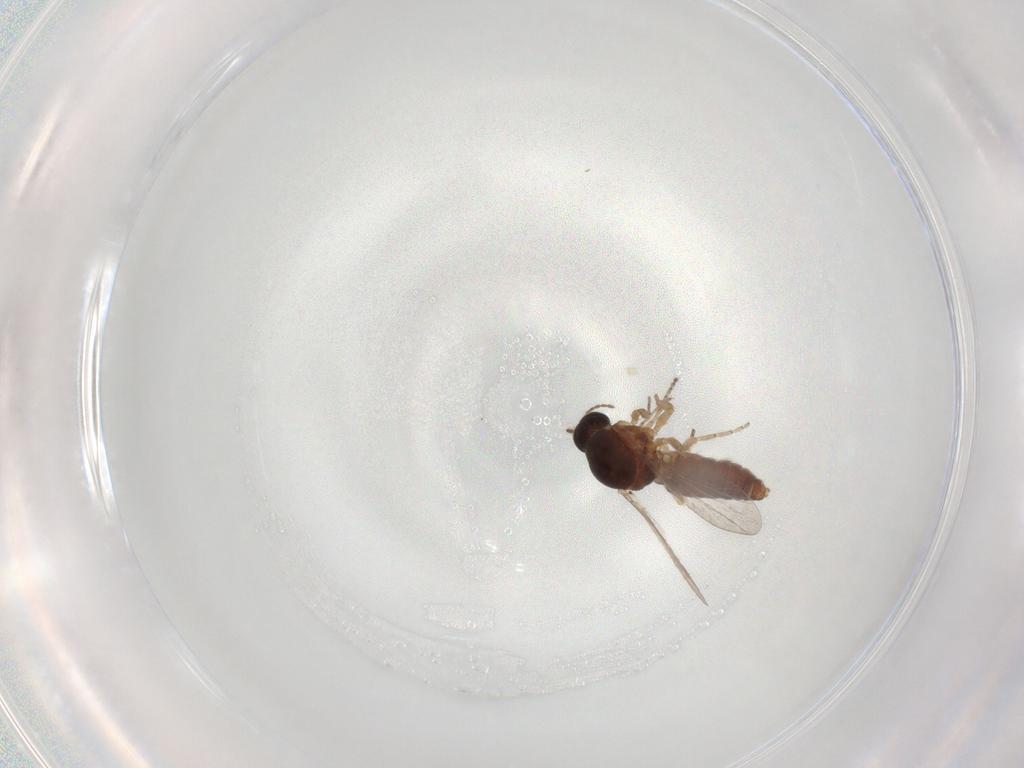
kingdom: Animalia
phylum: Arthropoda
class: Insecta
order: Diptera
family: Ceratopogonidae
